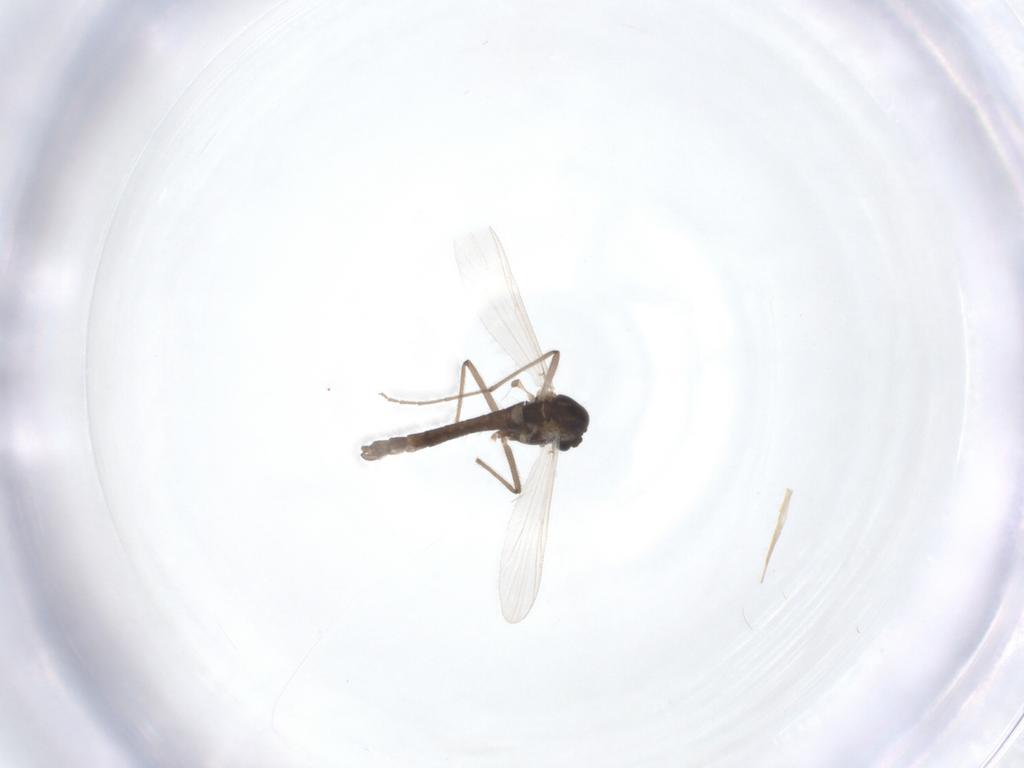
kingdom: Animalia
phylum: Arthropoda
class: Insecta
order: Diptera
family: Chironomidae
